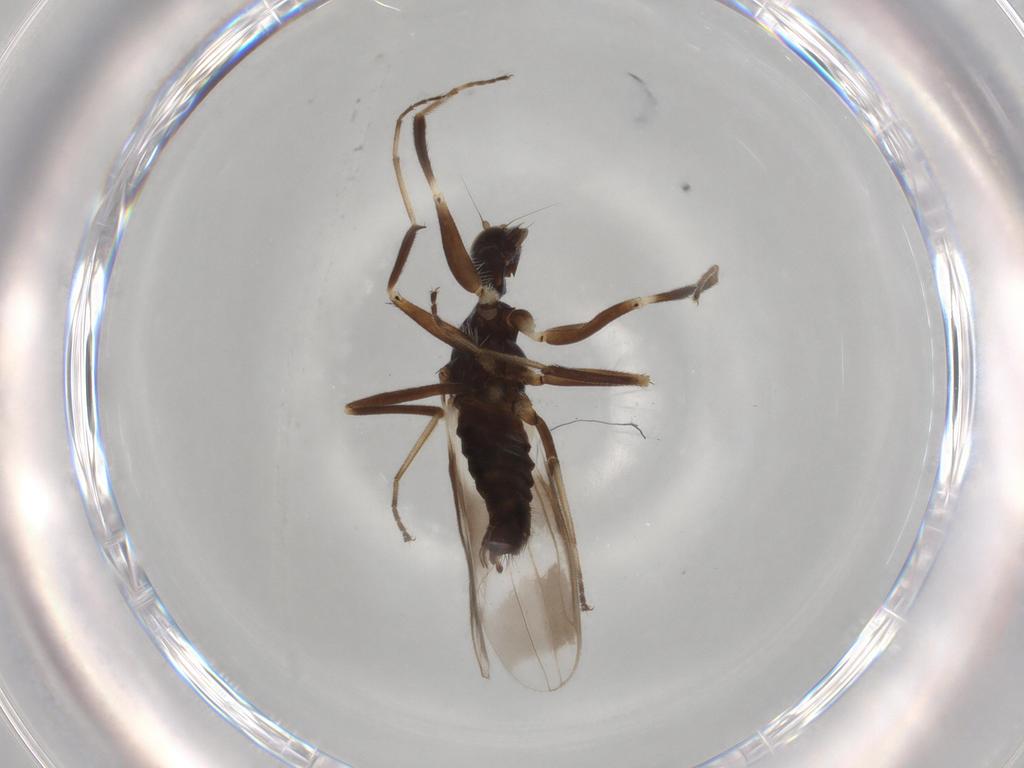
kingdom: Animalia
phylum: Arthropoda
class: Insecta
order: Diptera
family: Hybotidae
